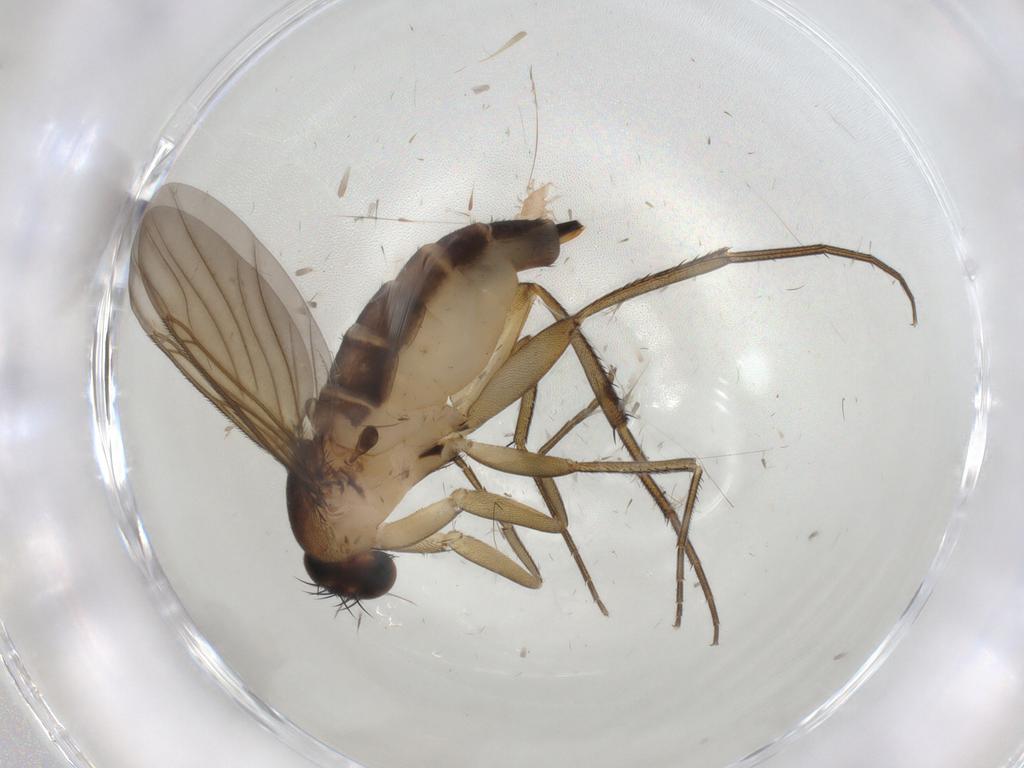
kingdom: Animalia
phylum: Arthropoda
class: Insecta
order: Diptera
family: Phoridae
